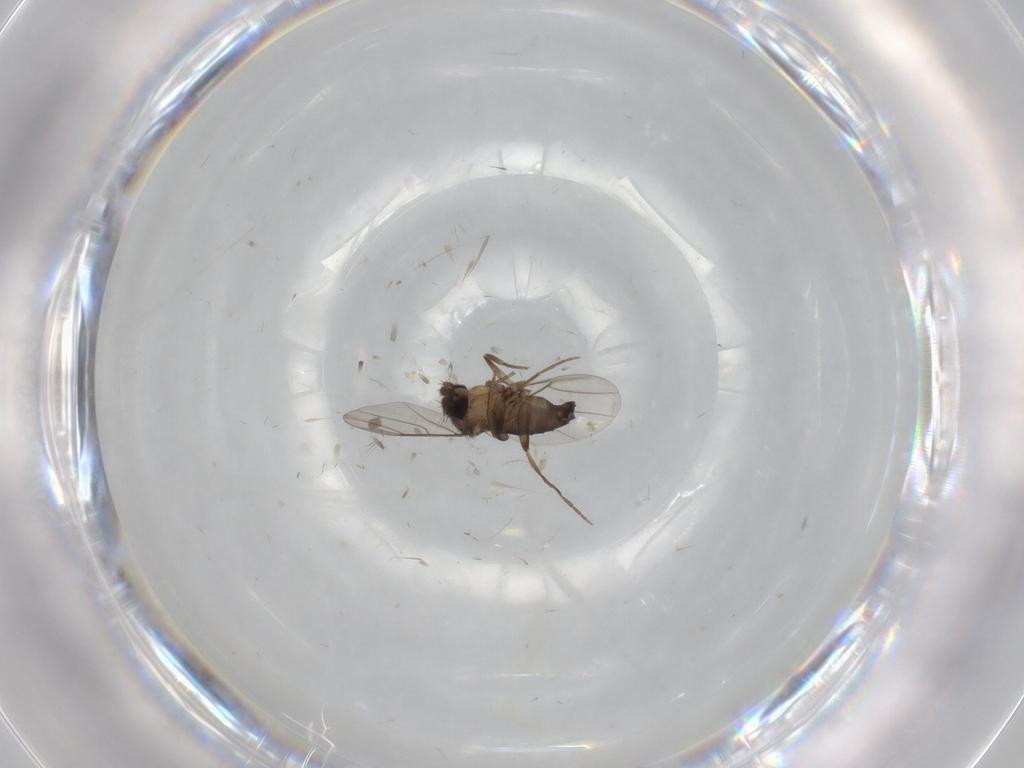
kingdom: Animalia
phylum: Arthropoda
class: Insecta
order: Diptera
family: Phoridae
